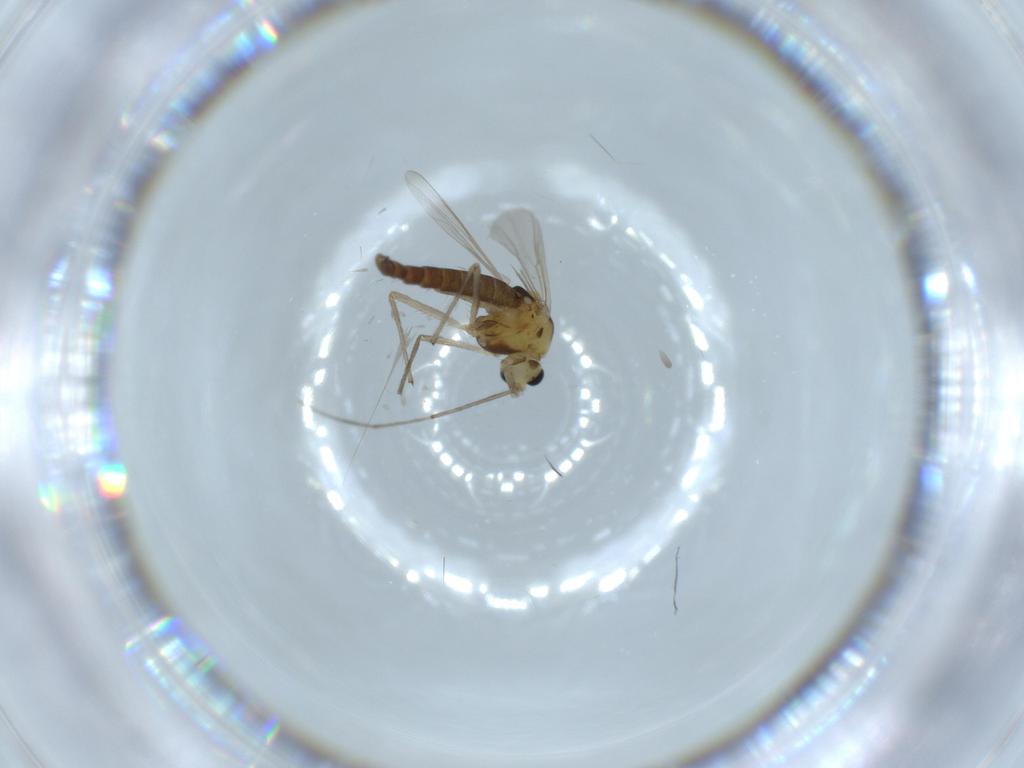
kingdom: Animalia
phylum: Arthropoda
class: Insecta
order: Diptera
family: Chironomidae
